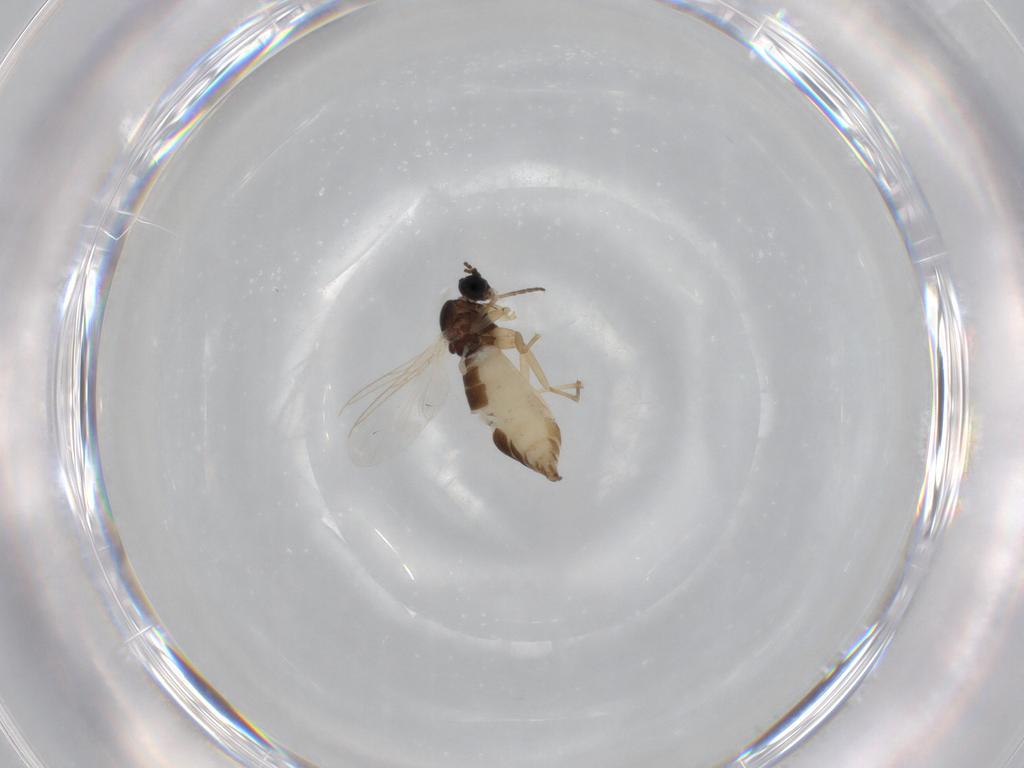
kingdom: Animalia
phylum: Arthropoda
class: Insecta
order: Diptera
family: Sciaridae
